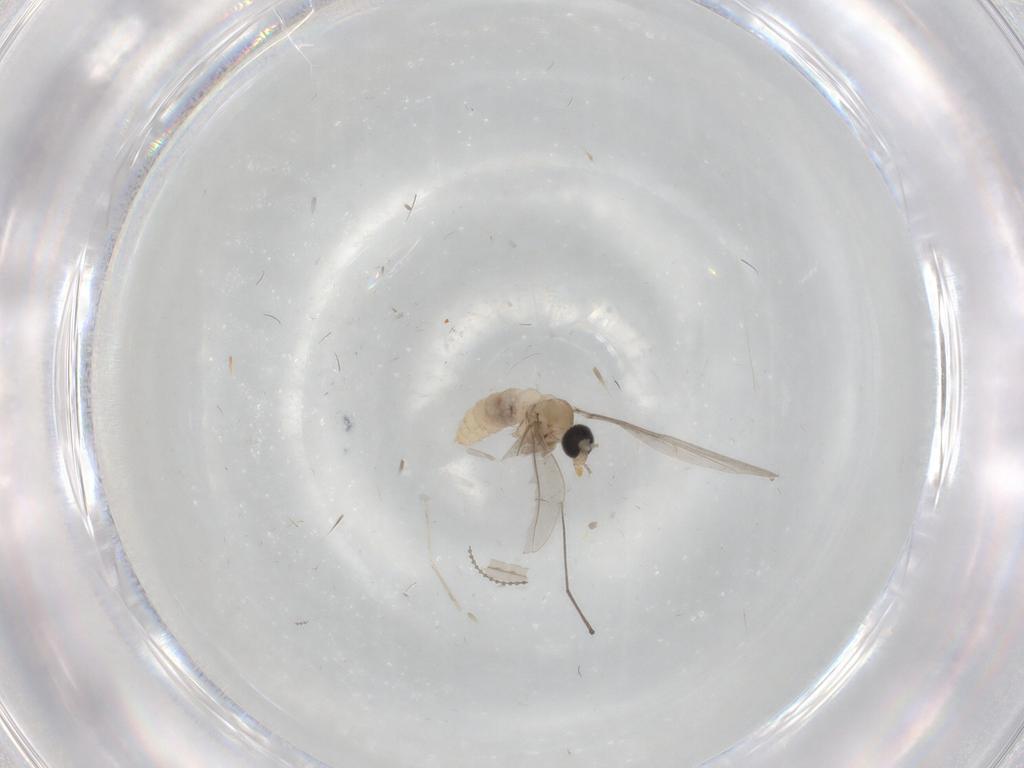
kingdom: Animalia
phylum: Arthropoda
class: Insecta
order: Diptera
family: Cecidomyiidae
